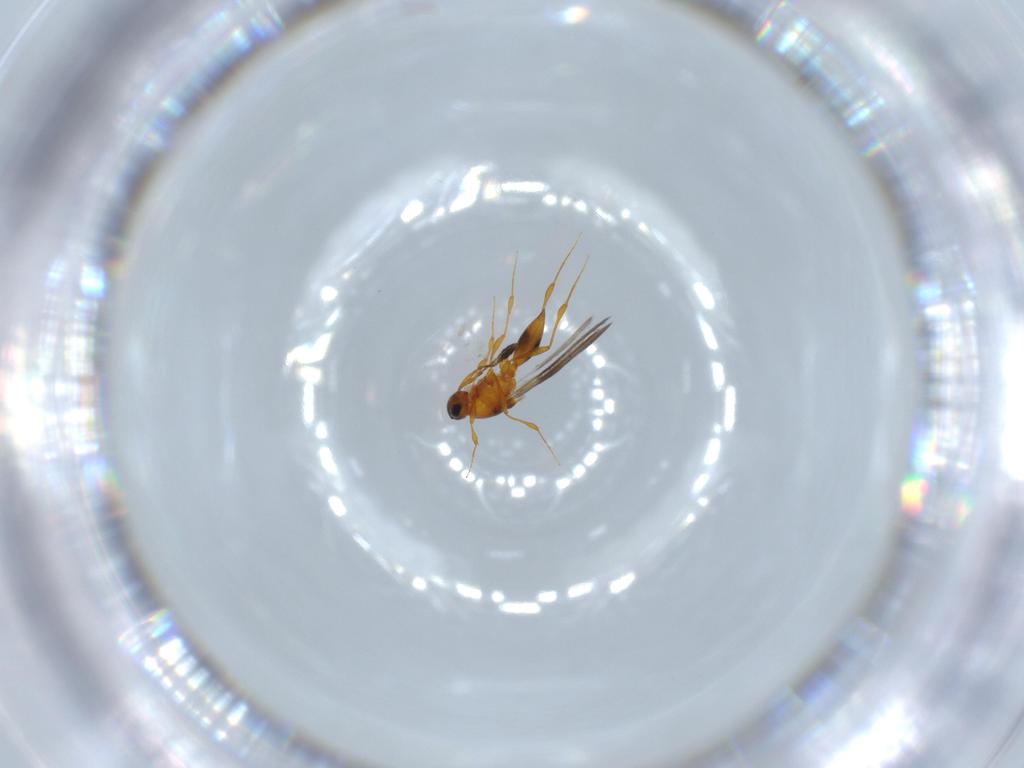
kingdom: Animalia
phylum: Arthropoda
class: Insecta
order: Hymenoptera
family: Platygastridae
